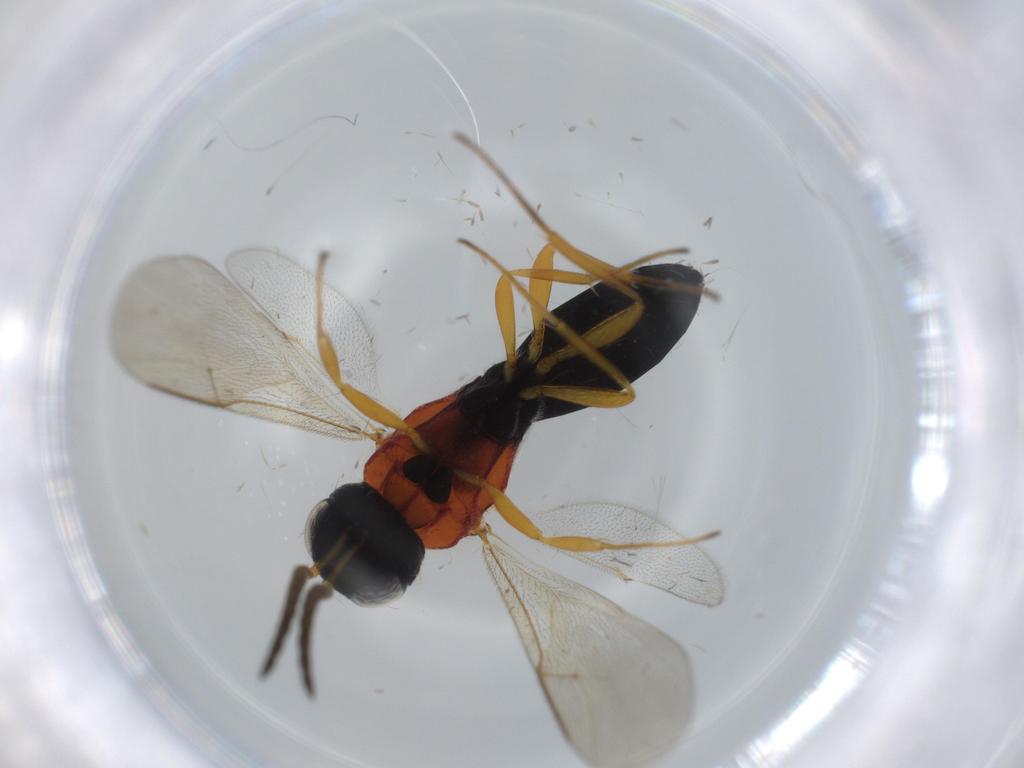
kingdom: Animalia
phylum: Arthropoda
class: Insecta
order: Hymenoptera
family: Scelionidae
